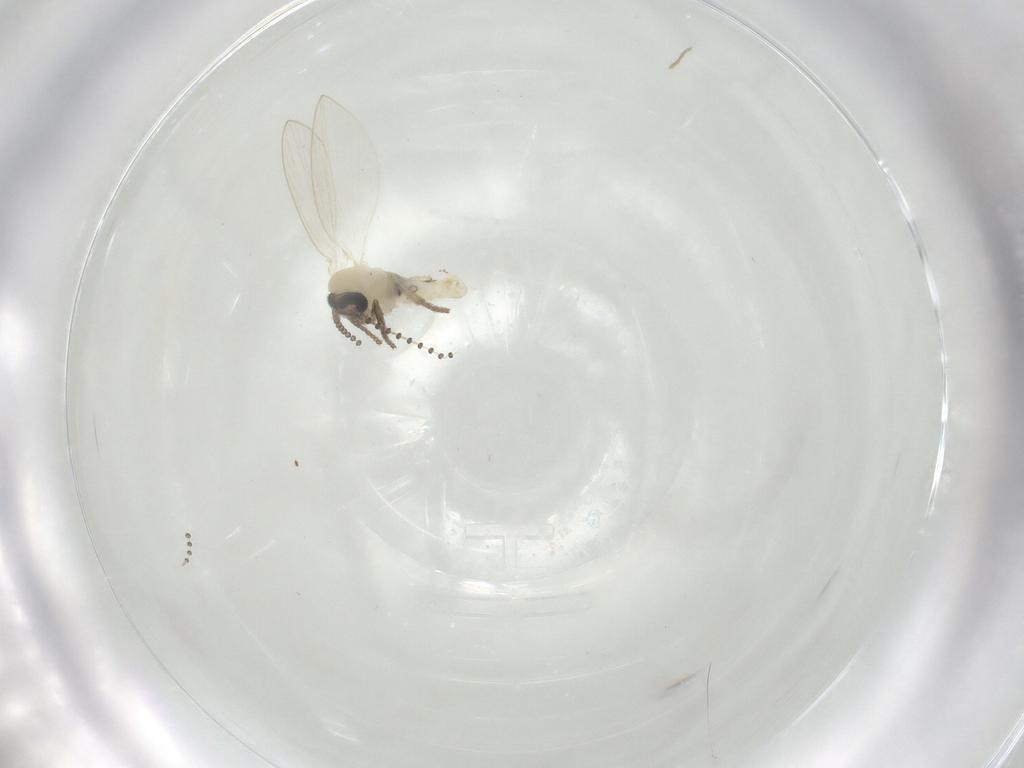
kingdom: Animalia
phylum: Arthropoda
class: Insecta
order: Diptera
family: Psychodidae
